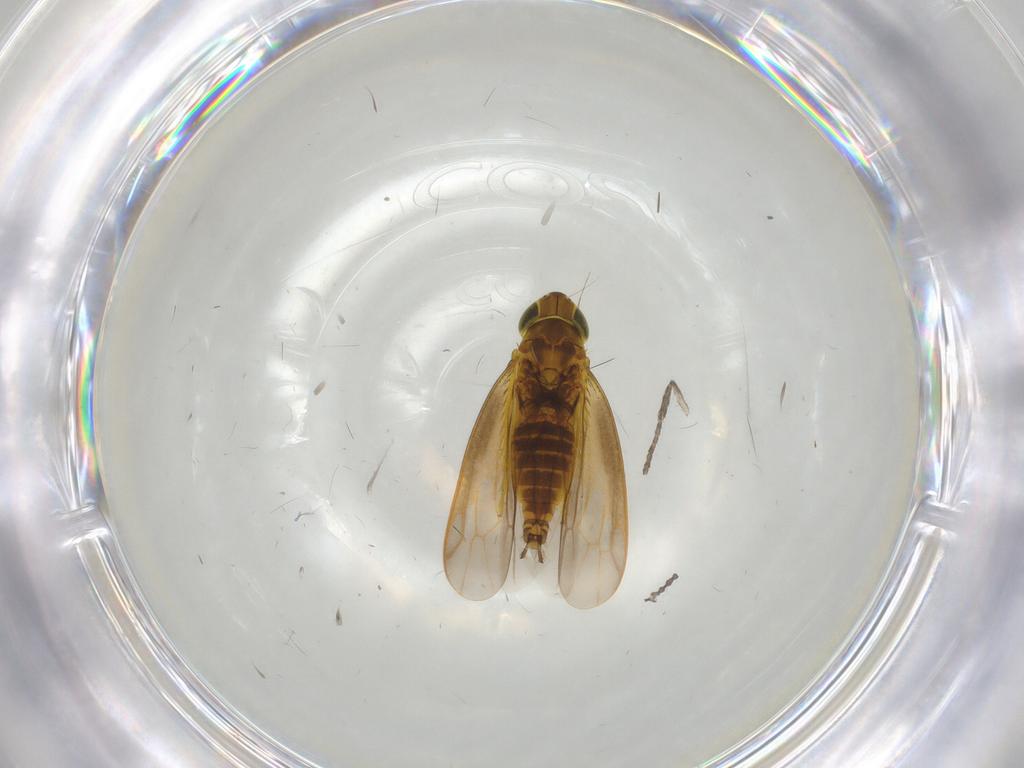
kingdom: Animalia
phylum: Arthropoda
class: Insecta
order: Hemiptera
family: Cicadellidae
